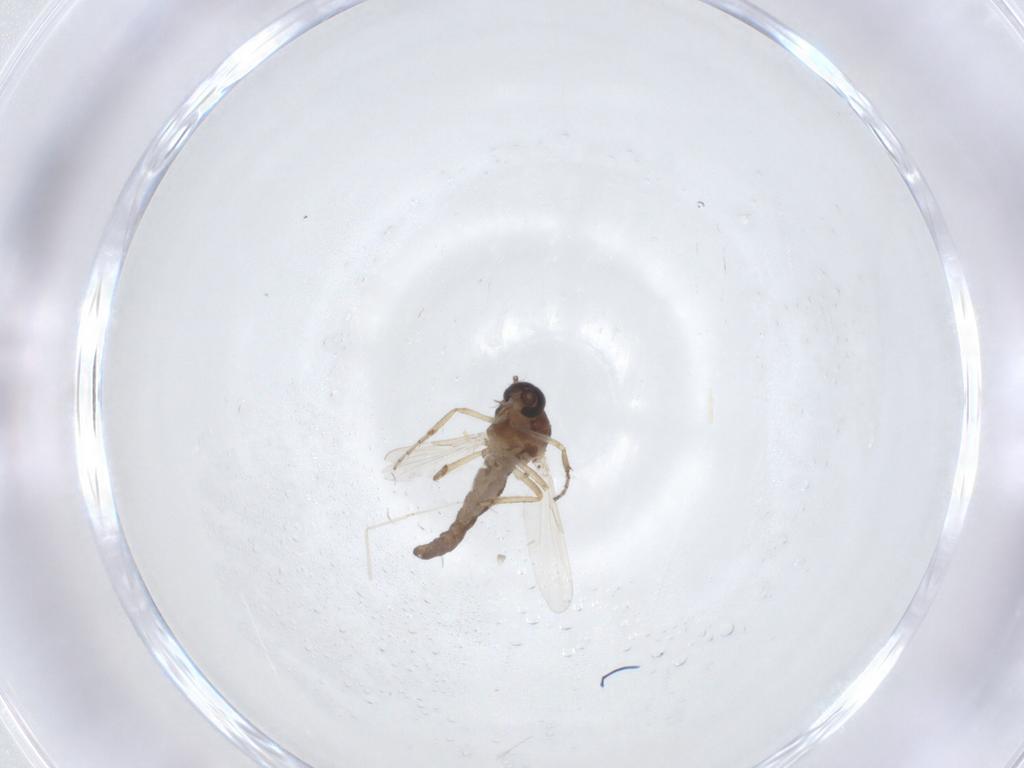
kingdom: Animalia
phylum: Arthropoda
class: Insecta
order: Diptera
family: Ceratopogonidae
